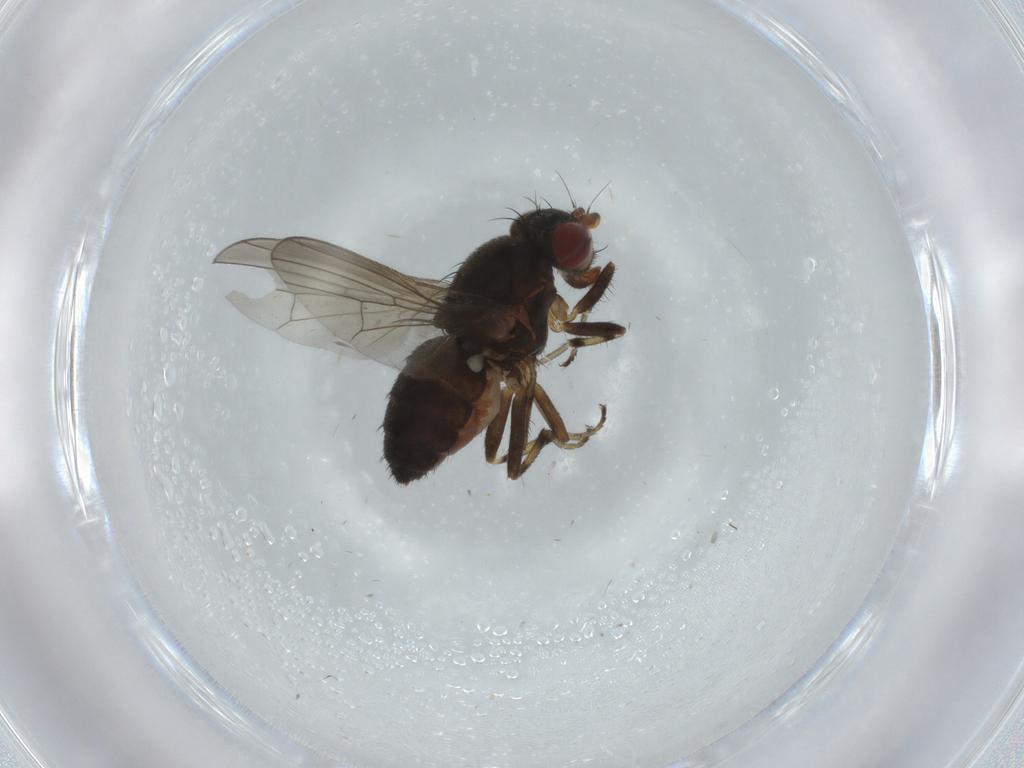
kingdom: Animalia
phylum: Arthropoda
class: Insecta
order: Diptera
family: Heleomyzidae
